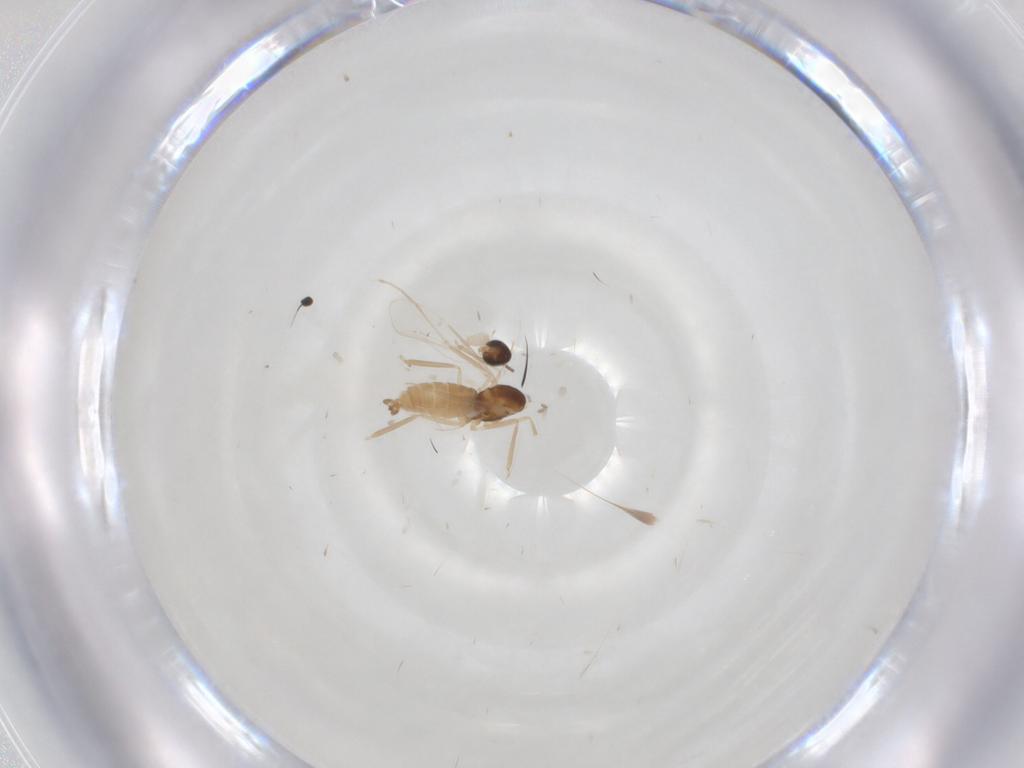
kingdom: Animalia
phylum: Arthropoda
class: Insecta
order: Diptera
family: Cecidomyiidae
